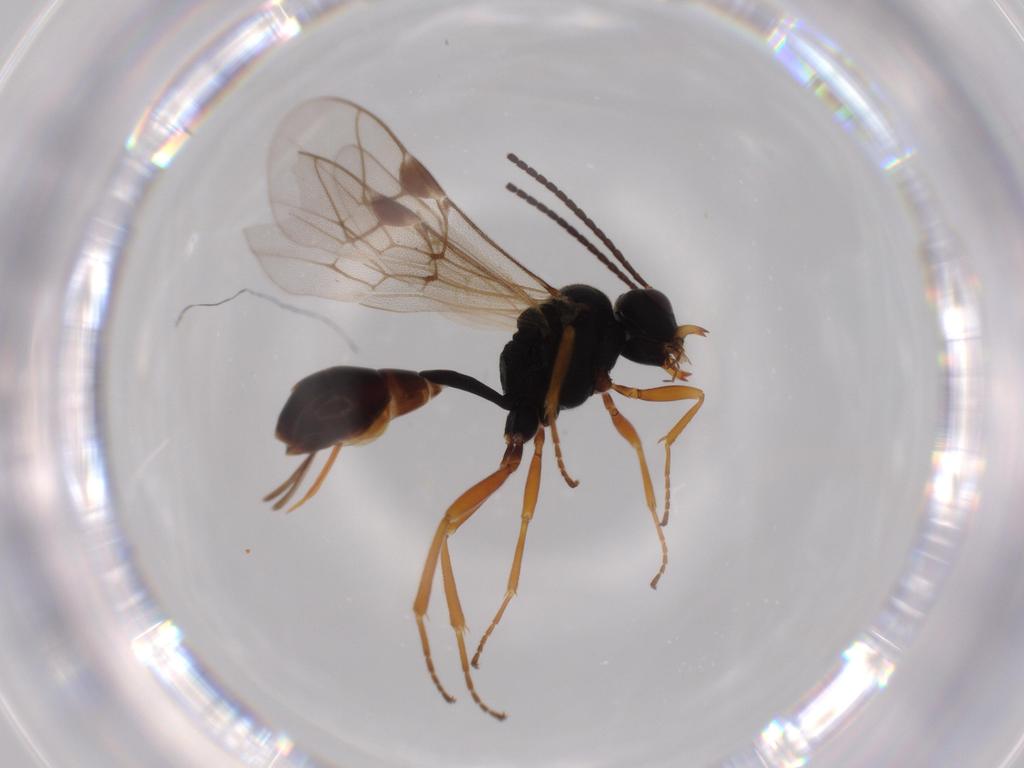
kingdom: Animalia
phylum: Arthropoda
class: Insecta
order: Hymenoptera
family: Ichneumonidae
